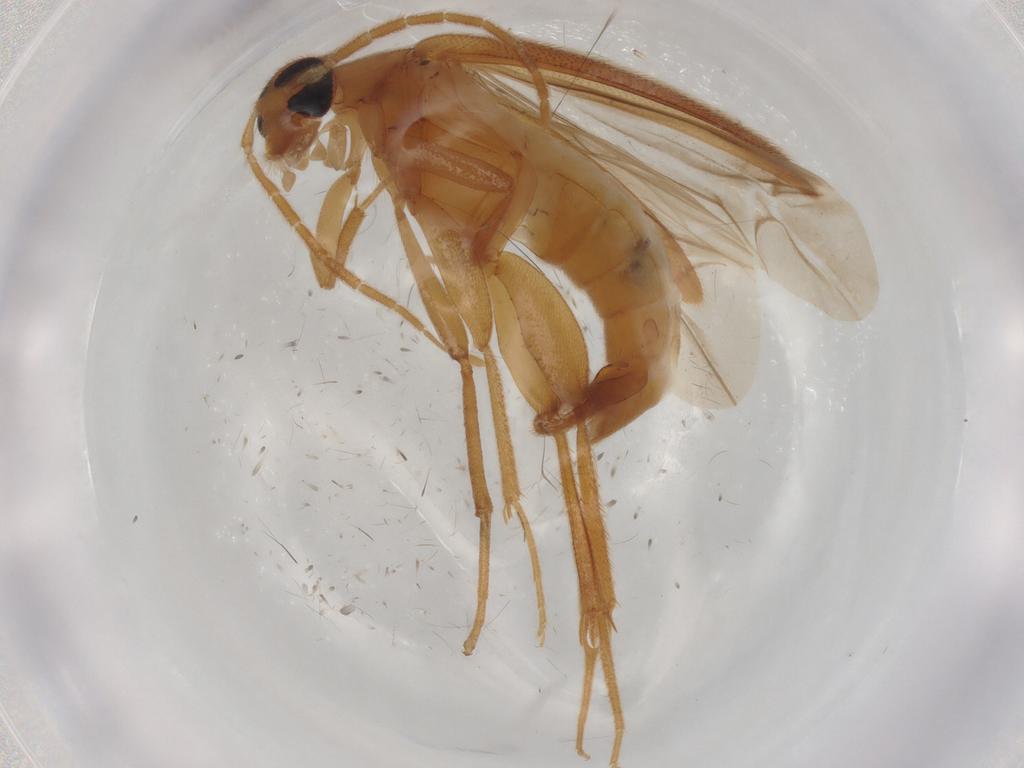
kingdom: Animalia
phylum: Arthropoda
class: Insecta
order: Coleoptera
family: Scraptiidae
